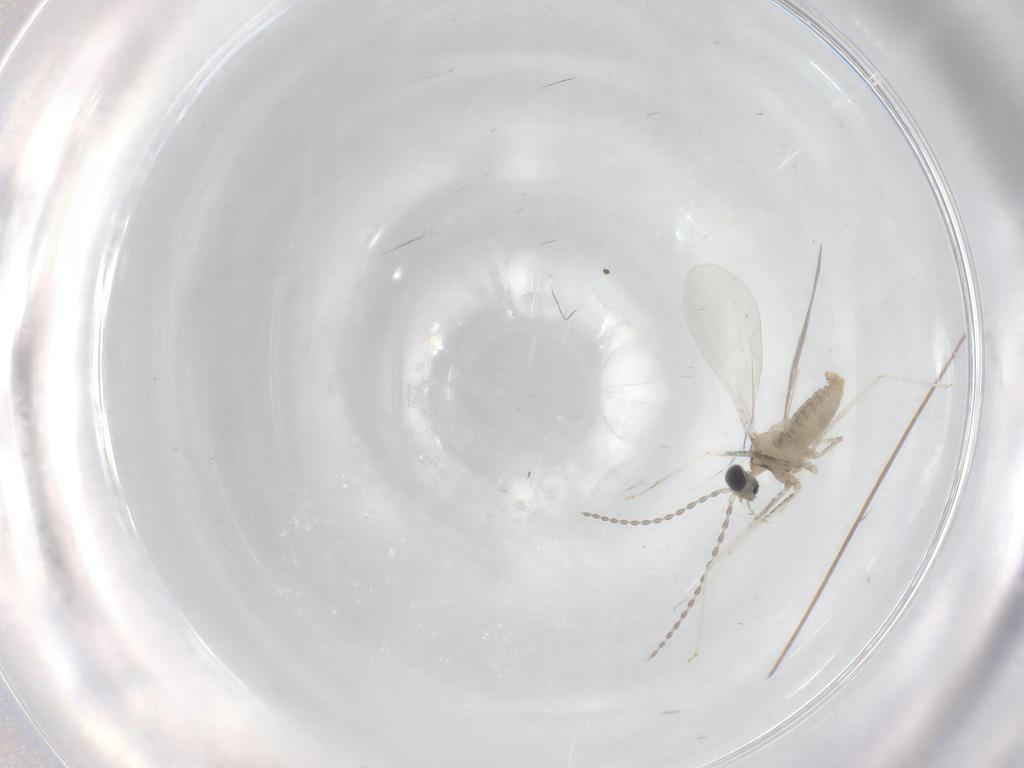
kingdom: Animalia
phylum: Arthropoda
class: Insecta
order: Diptera
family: Cecidomyiidae
